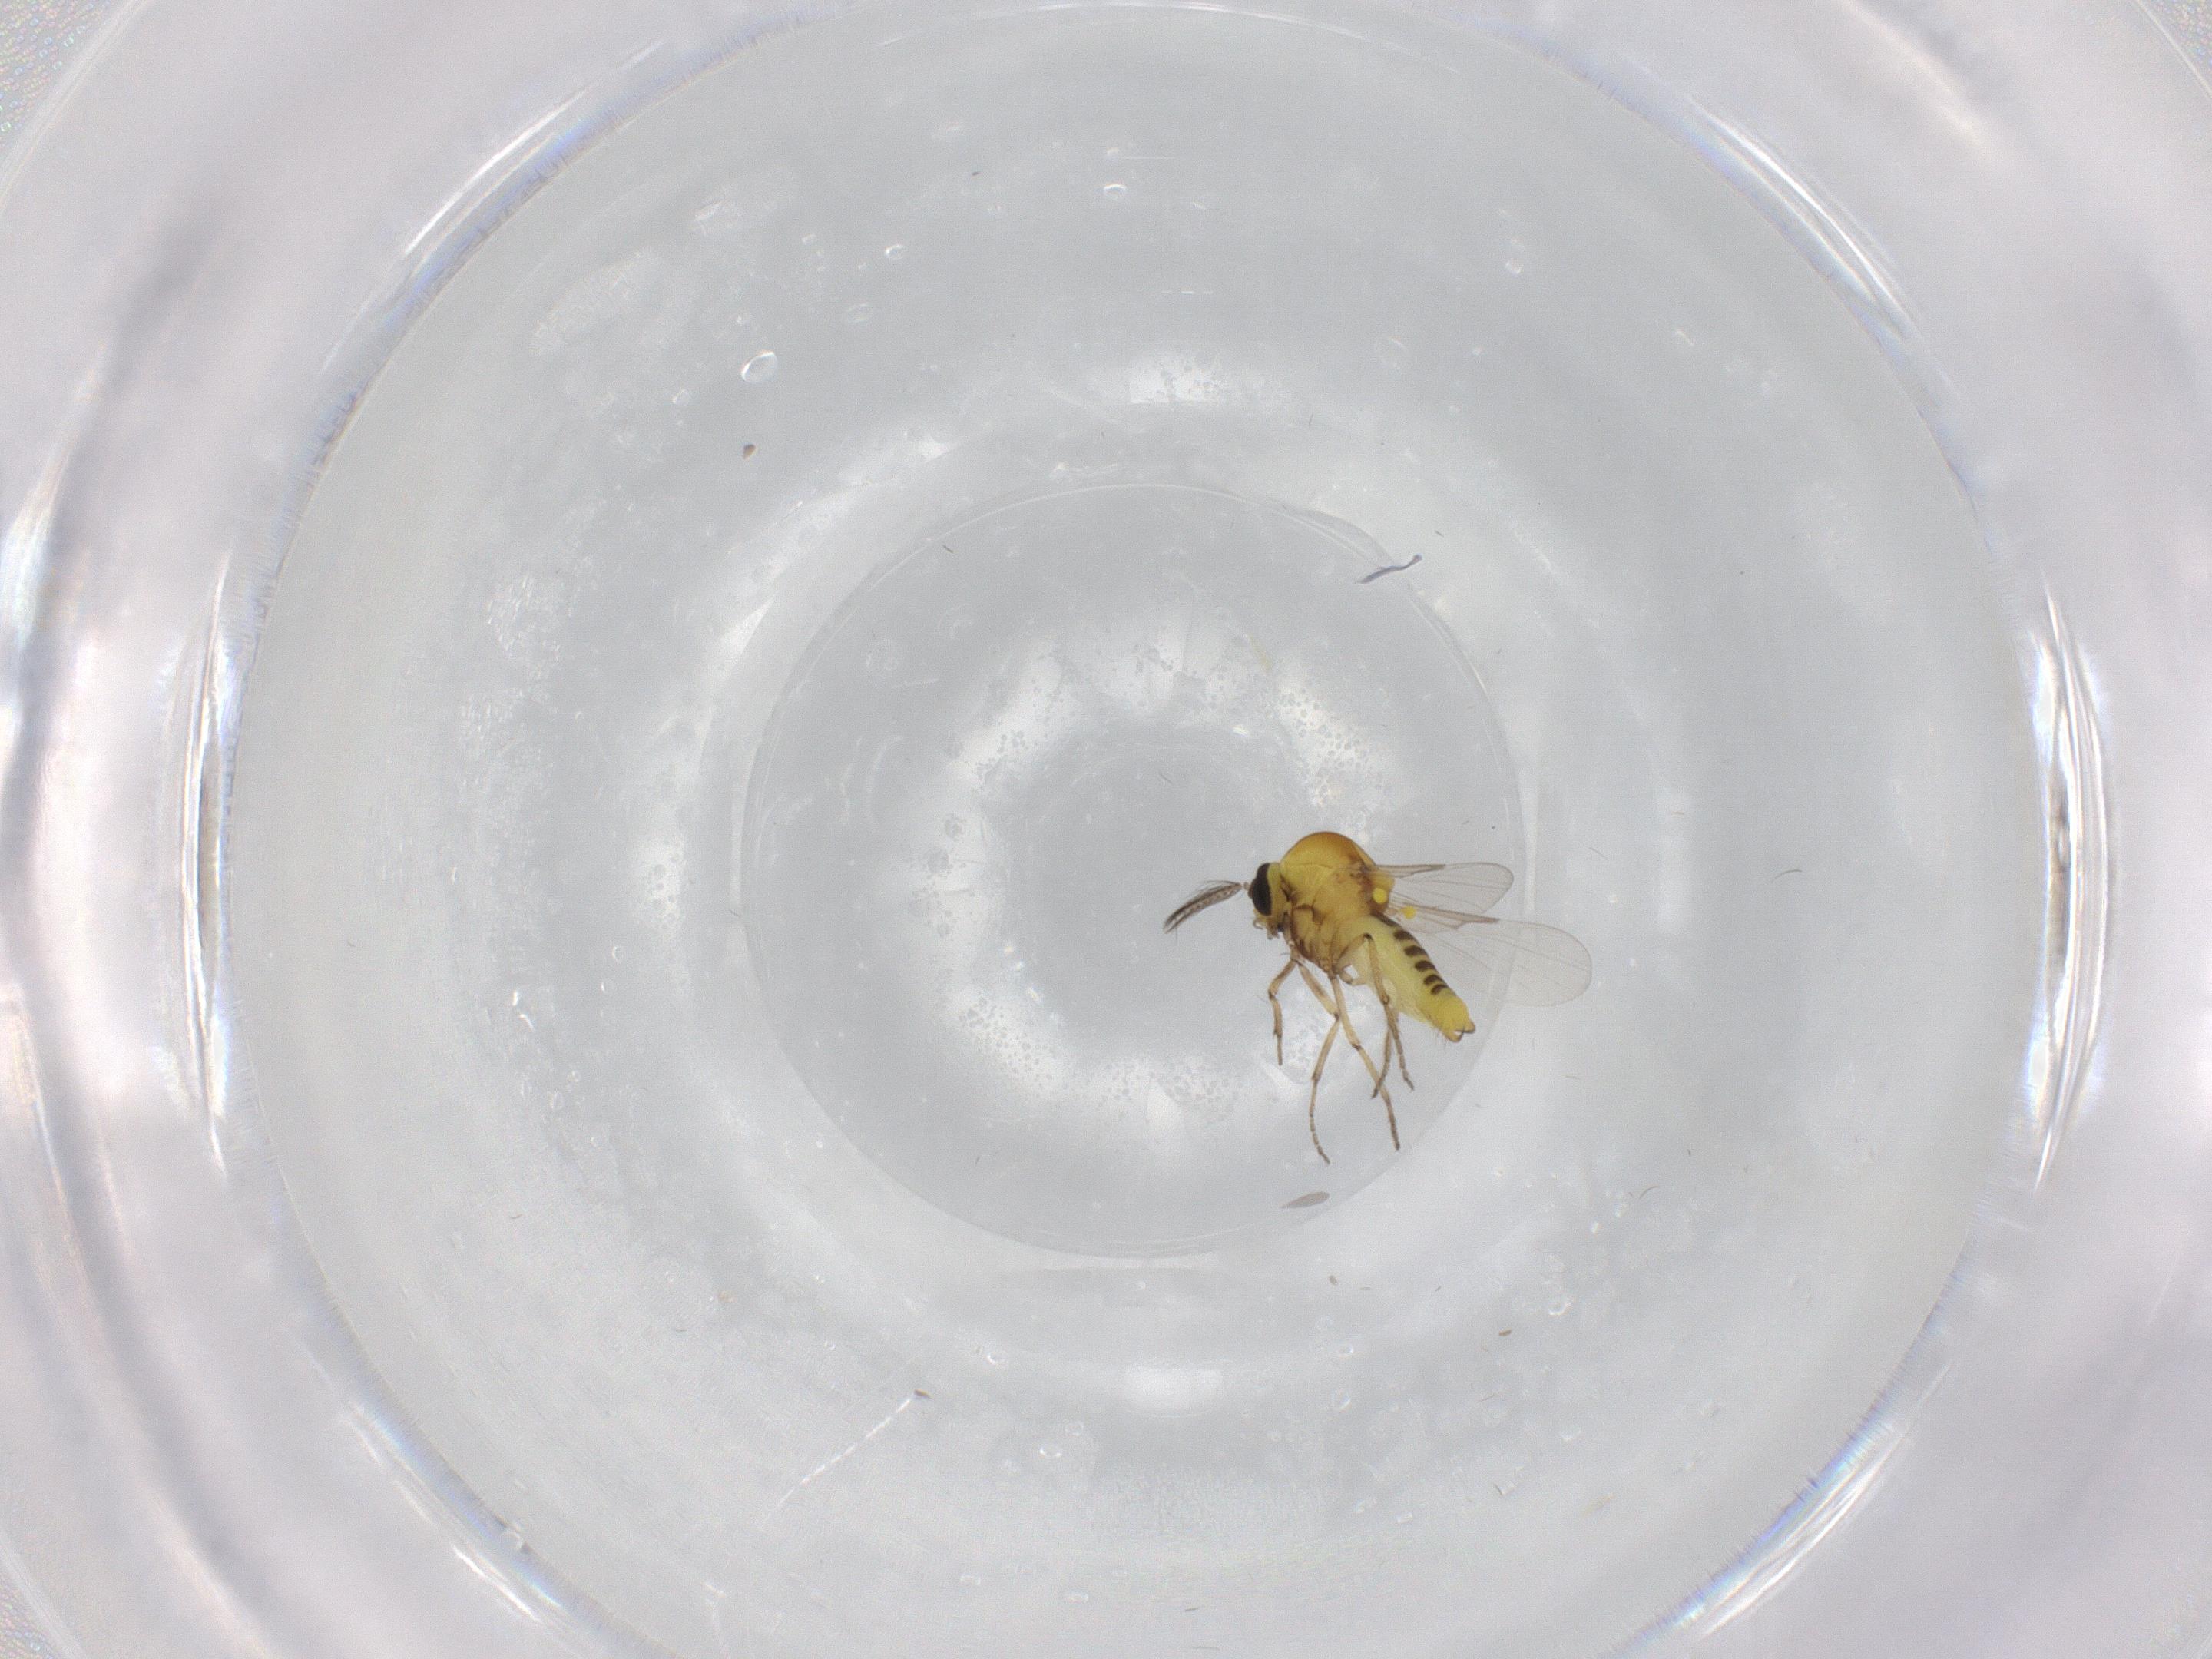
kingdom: Animalia
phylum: Arthropoda
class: Insecta
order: Diptera
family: Ceratopogonidae
